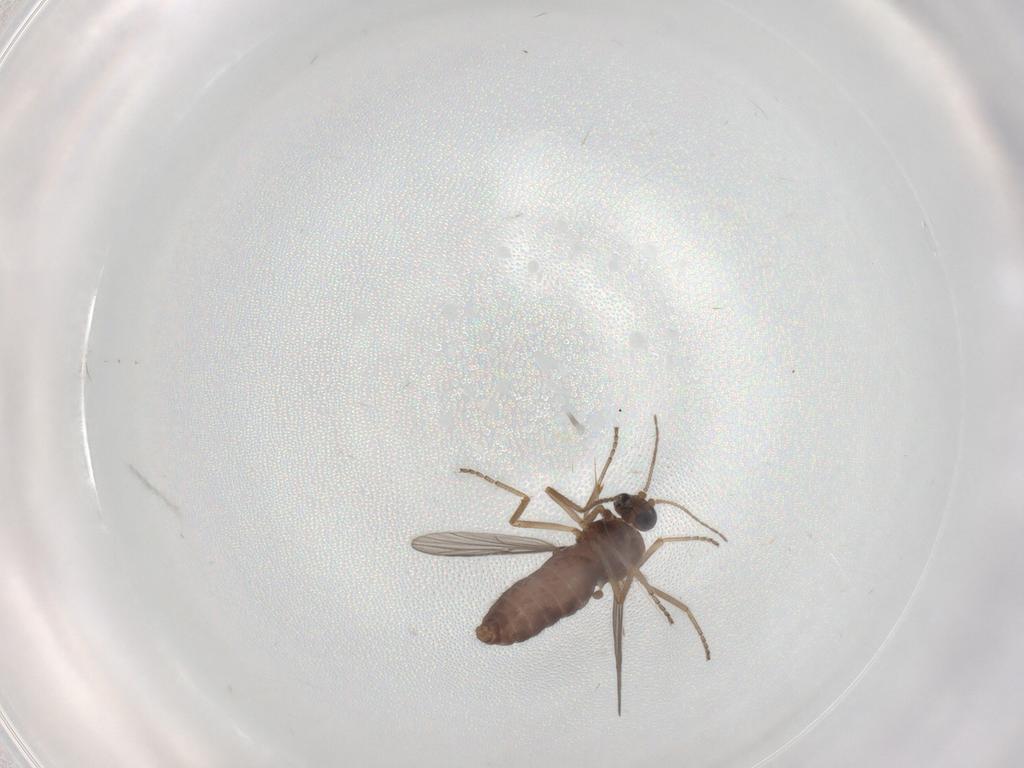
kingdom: Animalia
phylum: Arthropoda
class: Insecta
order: Diptera
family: Ceratopogonidae
